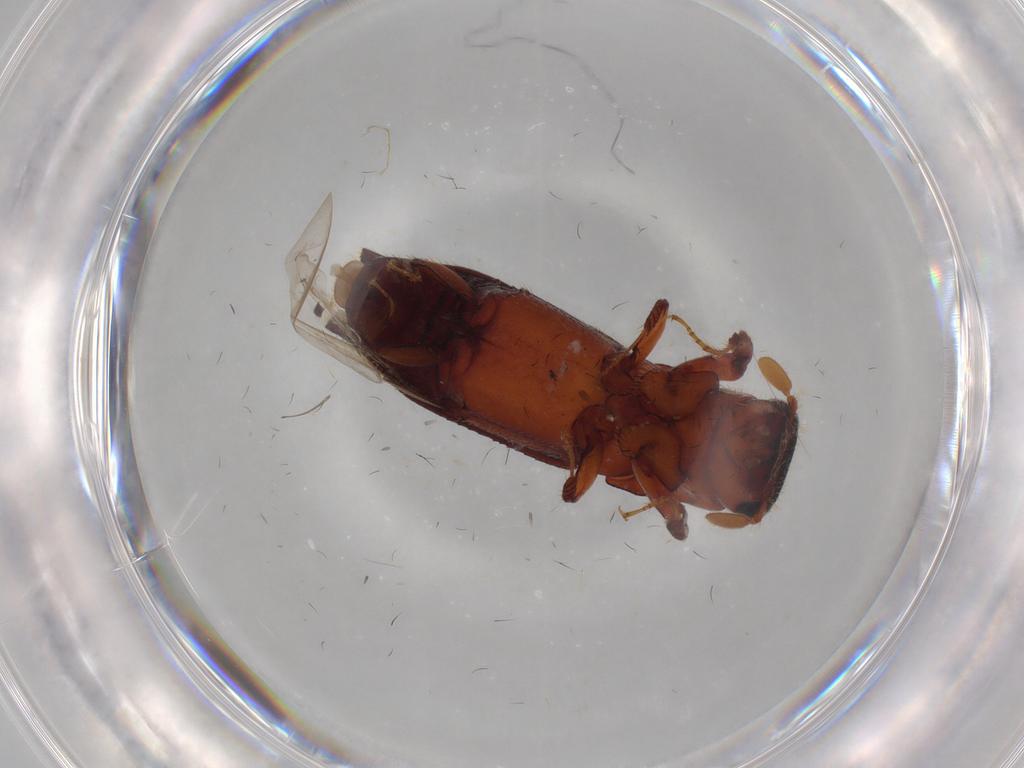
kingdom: Animalia
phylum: Arthropoda
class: Insecta
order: Coleoptera
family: Curculionidae
